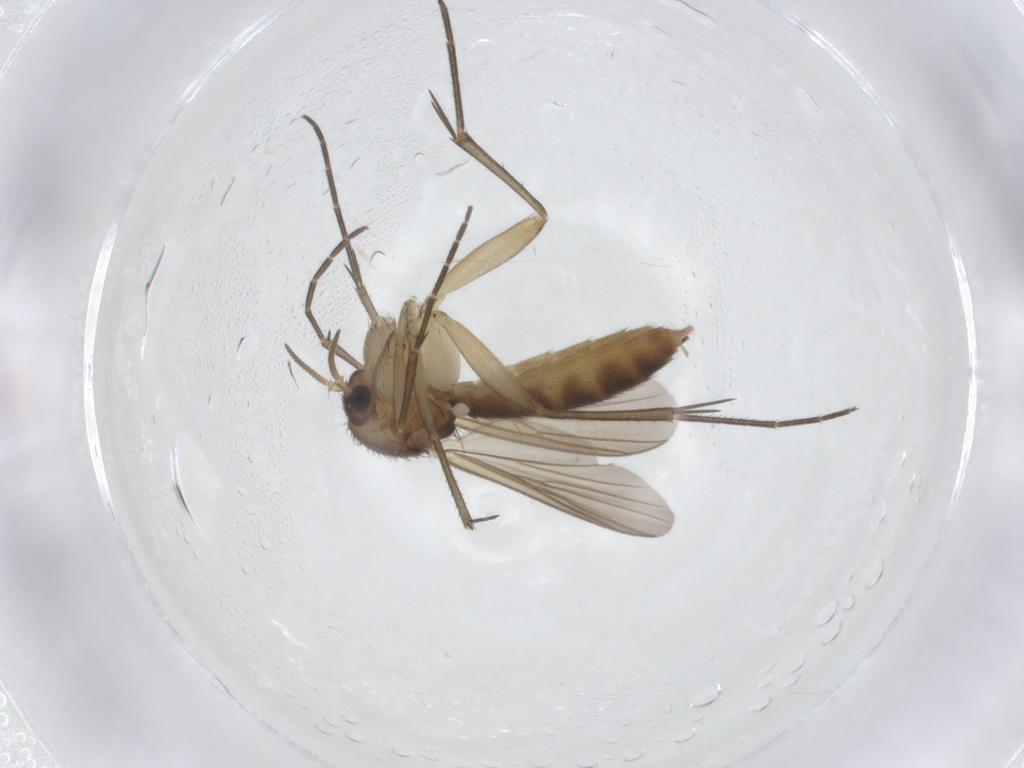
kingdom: Animalia
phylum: Arthropoda
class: Insecta
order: Diptera
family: Mycetophilidae
